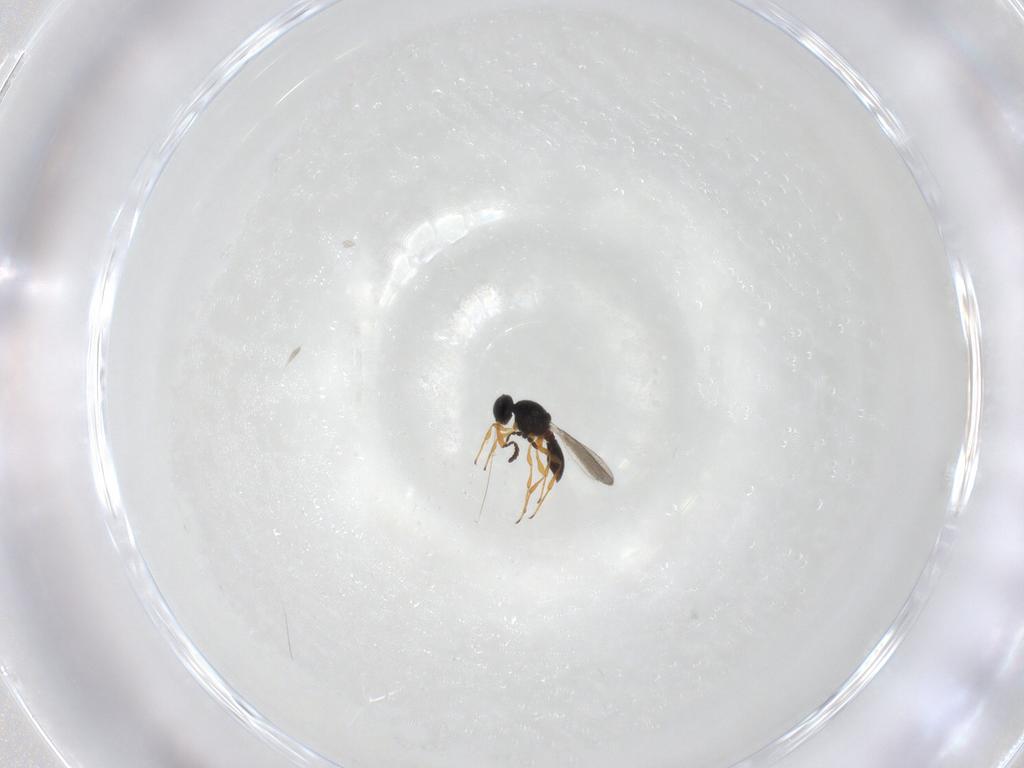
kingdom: Animalia
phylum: Arthropoda
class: Insecta
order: Hymenoptera
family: Platygastridae
